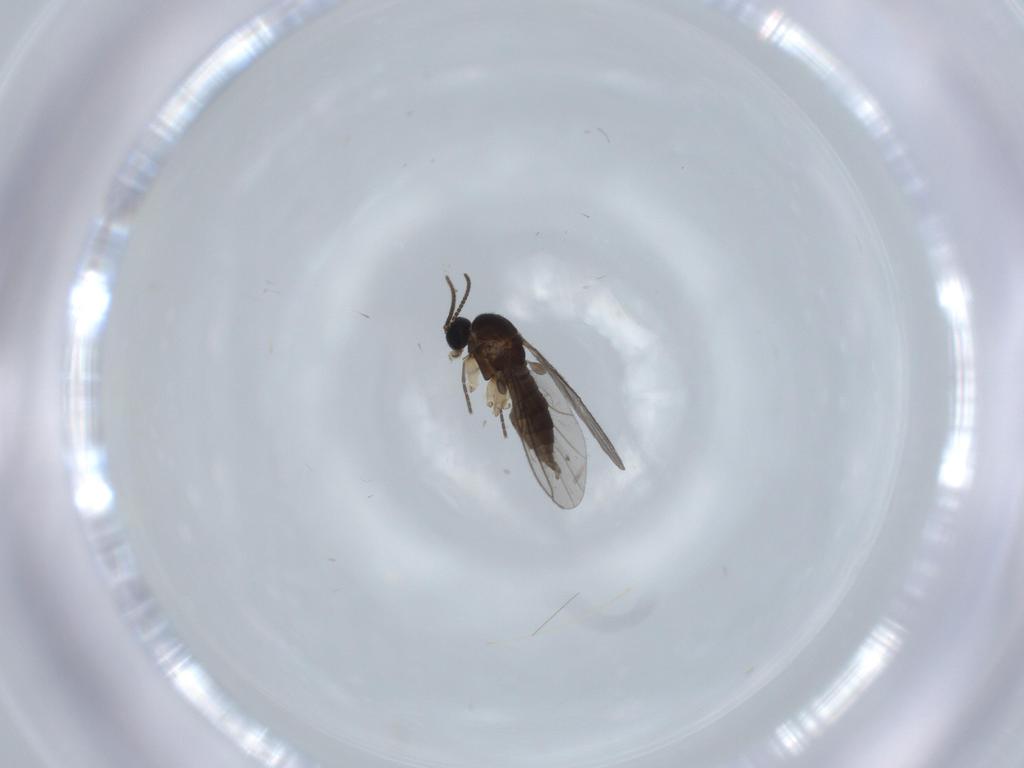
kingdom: Animalia
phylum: Arthropoda
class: Insecta
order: Diptera
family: Sciaridae
